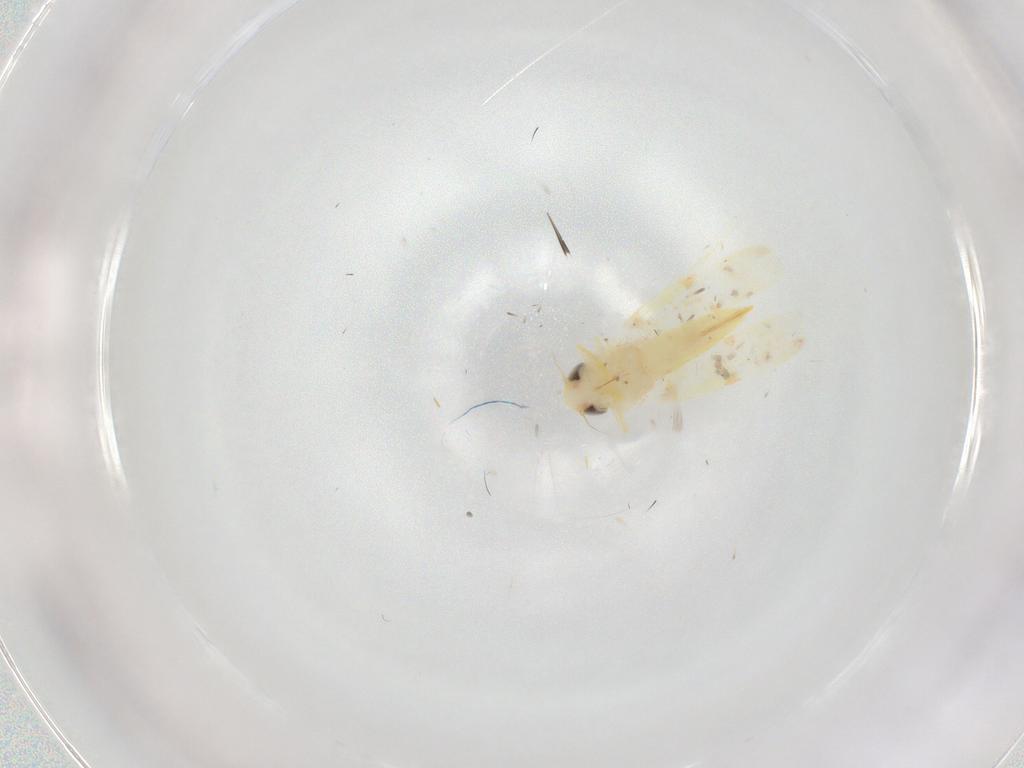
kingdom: Animalia
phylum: Arthropoda
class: Insecta
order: Hemiptera
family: Cicadellidae
